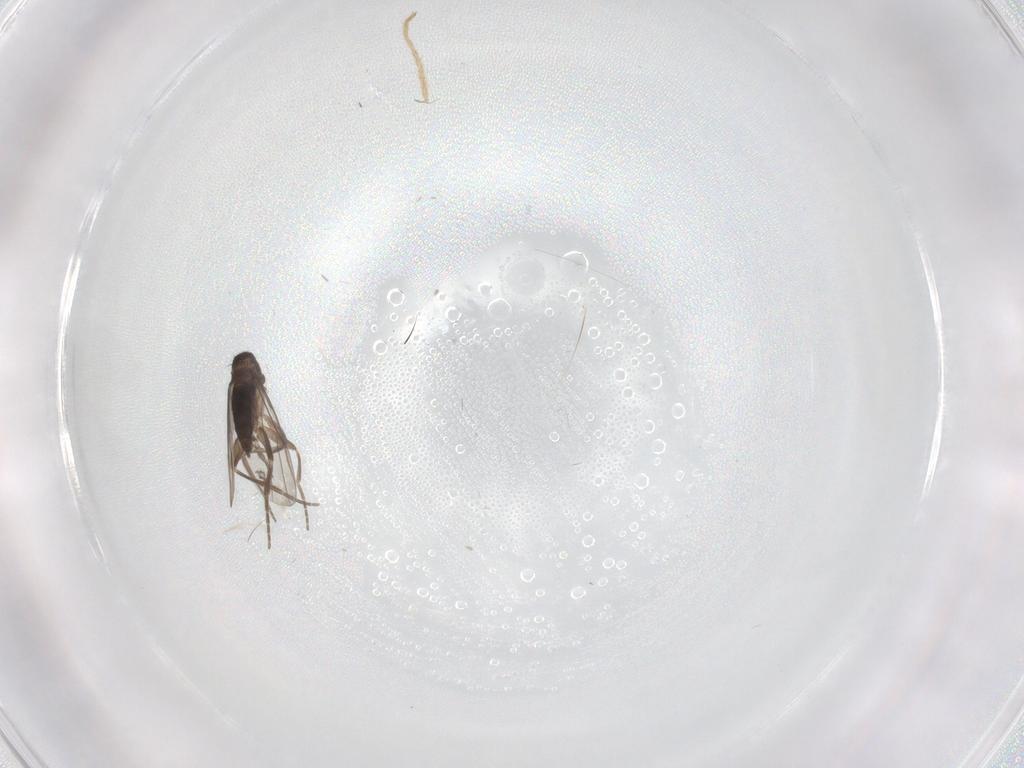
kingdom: Animalia
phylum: Arthropoda
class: Insecta
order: Diptera
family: Chironomidae
